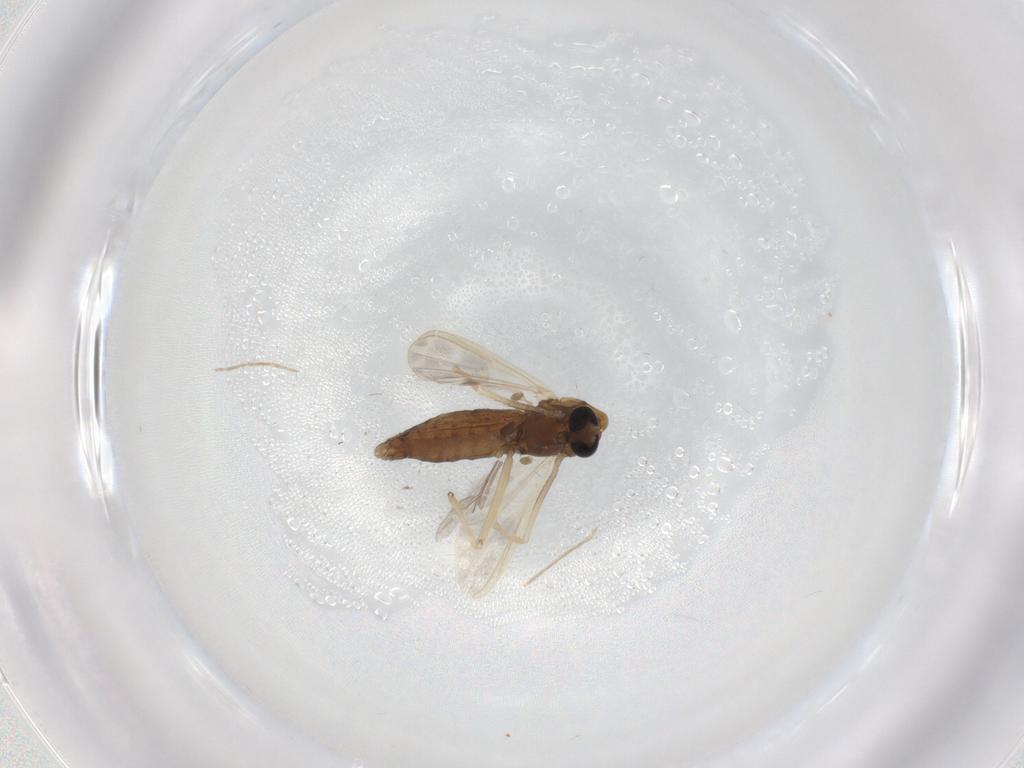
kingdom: Animalia
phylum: Arthropoda
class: Insecta
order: Diptera
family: Chironomidae
